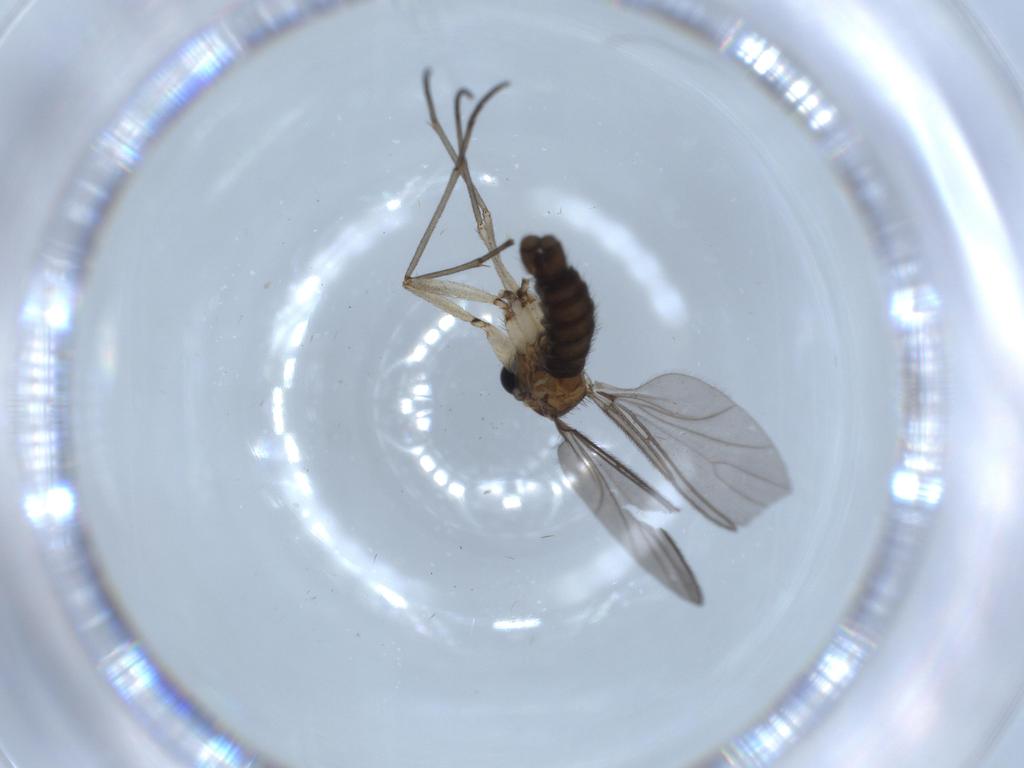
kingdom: Animalia
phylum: Arthropoda
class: Insecta
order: Diptera
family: Sciaridae
